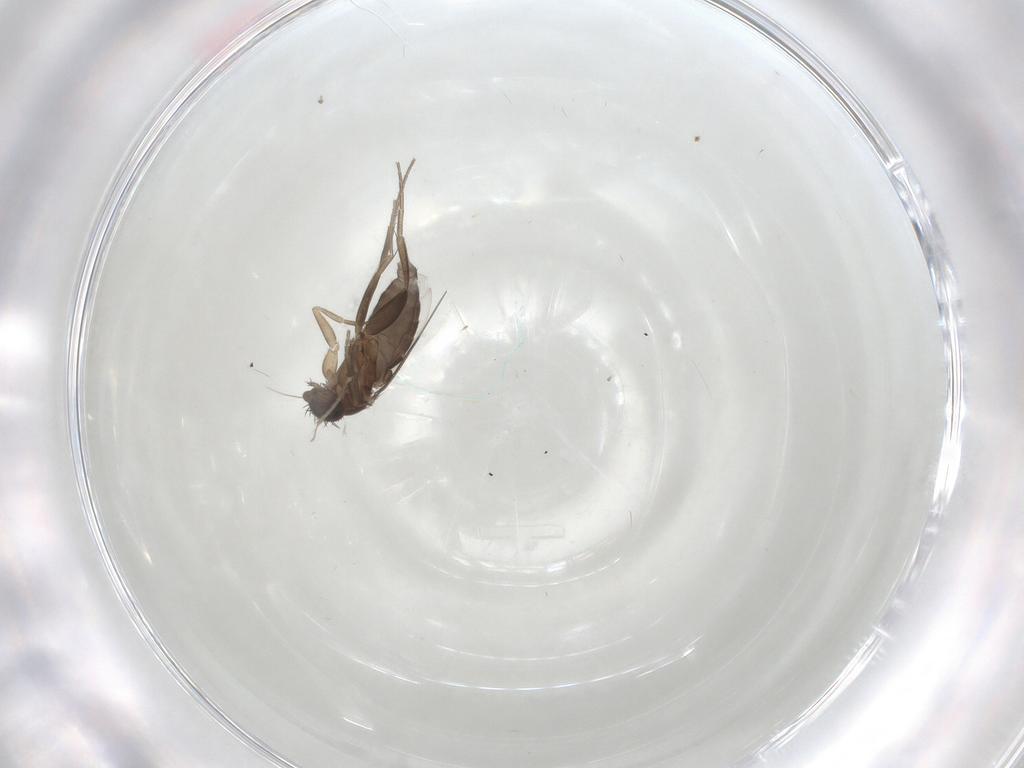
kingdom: Animalia
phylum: Arthropoda
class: Insecta
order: Diptera
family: Phoridae
